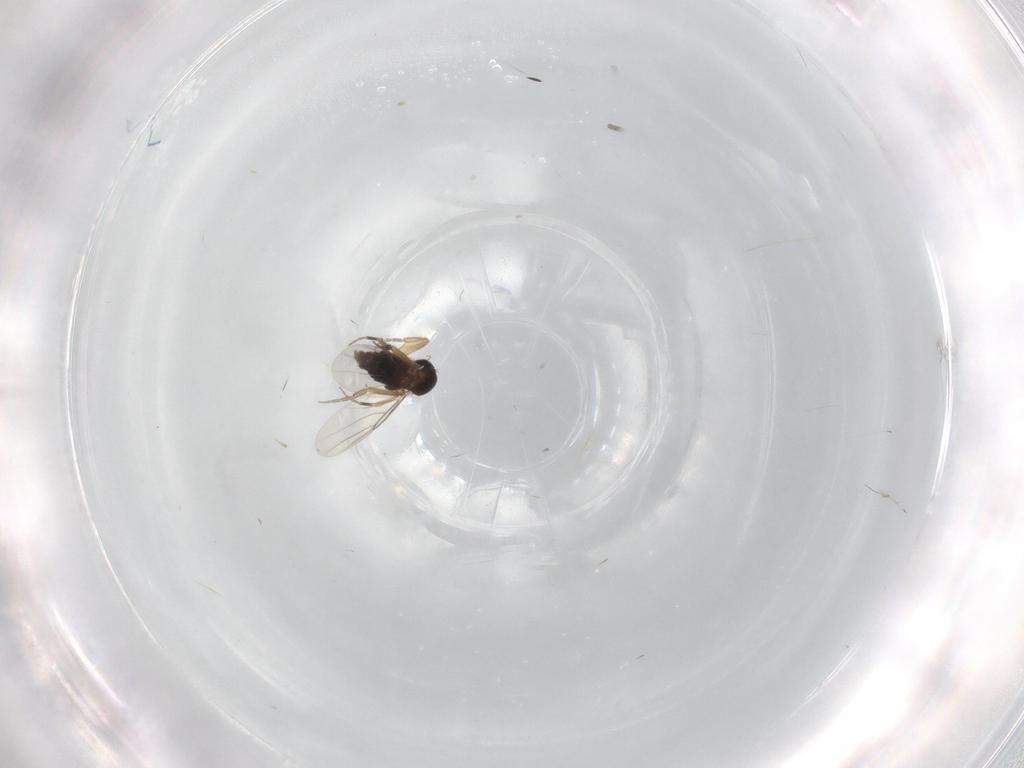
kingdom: Animalia
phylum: Arthropoda
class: Insecta
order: Diptera
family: Phoridae
